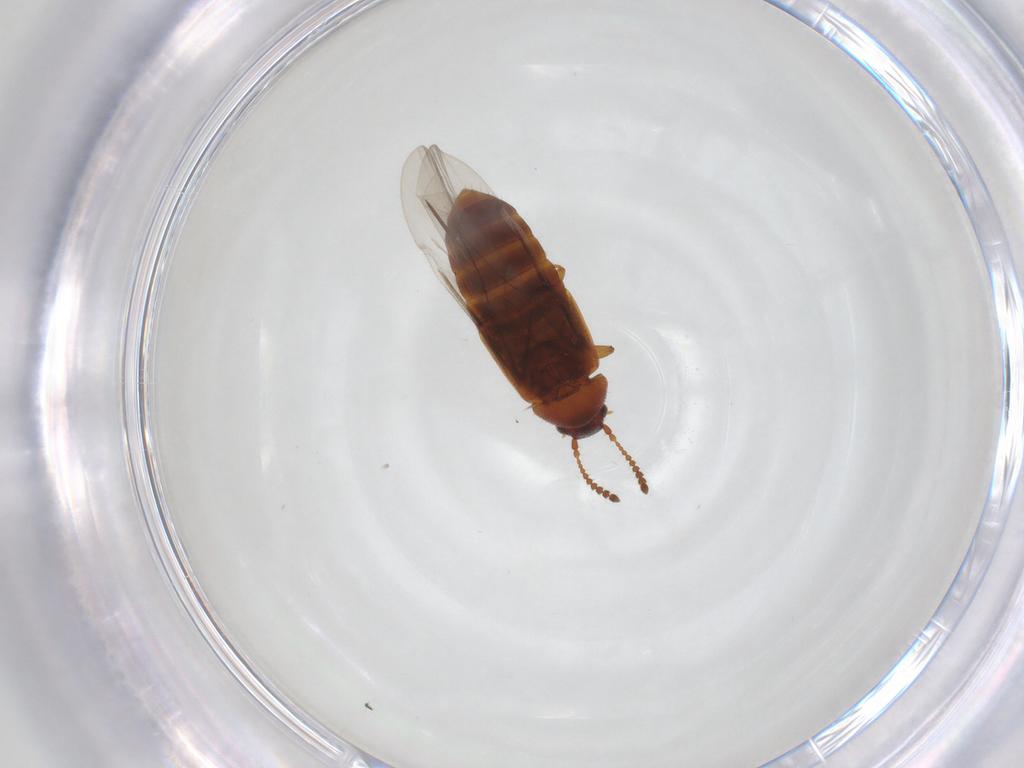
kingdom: Animalia
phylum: Arthropoda
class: Insecta
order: Coleoptera
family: Staphylinidae
